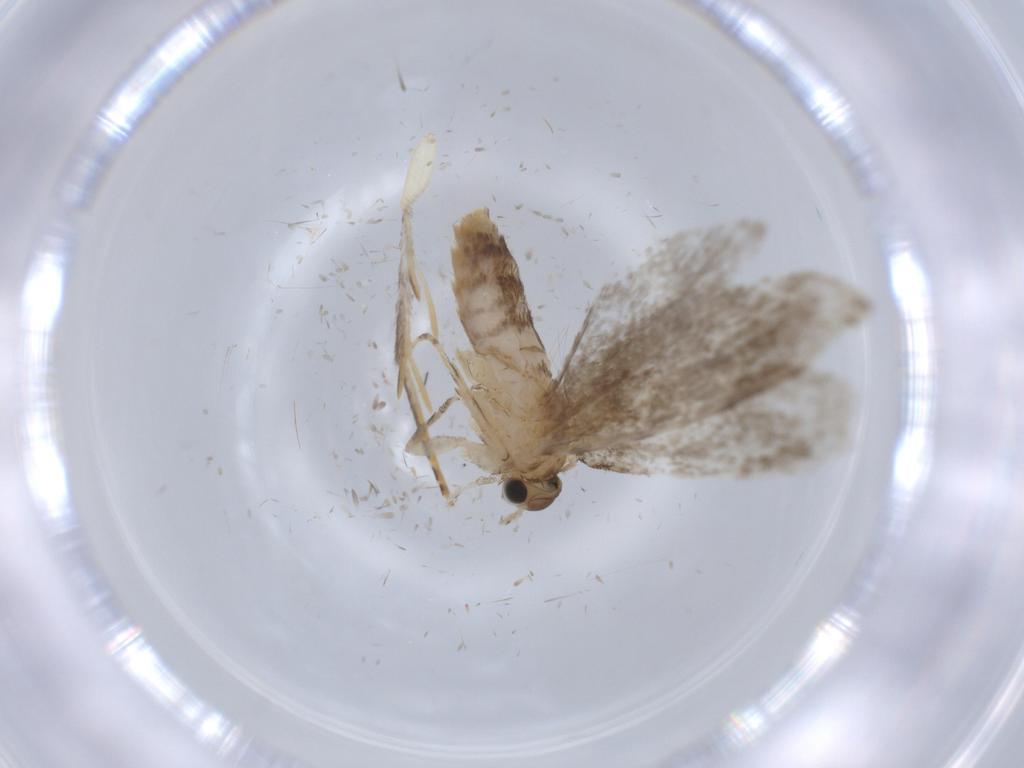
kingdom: Animalia
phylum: Arthropoda
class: Insecta
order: Lepidoptera
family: Tineidae
